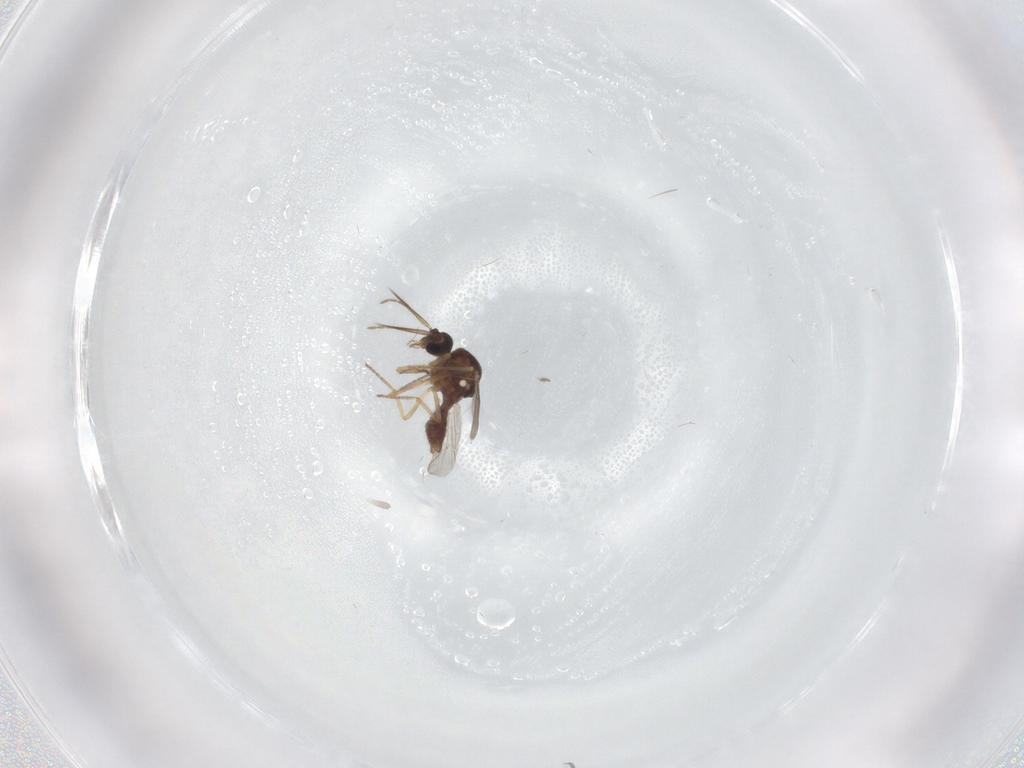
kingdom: Animalia
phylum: Arthropoda
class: Insecta
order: Diptera
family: Ceratopogonidae
